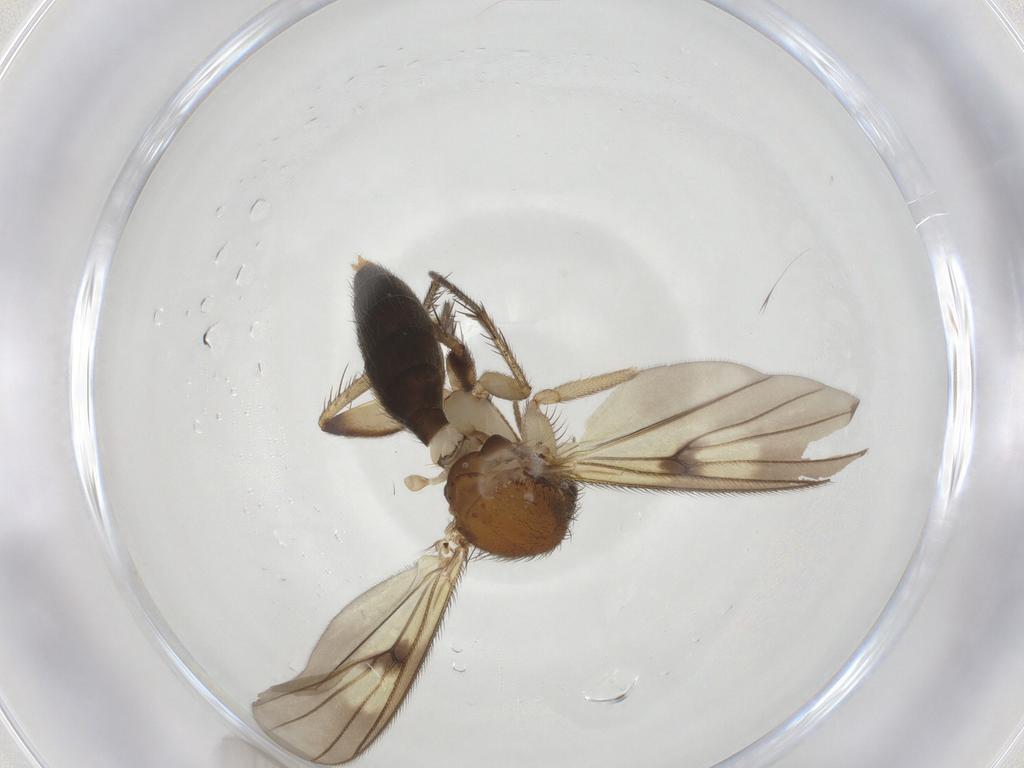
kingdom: Animalia
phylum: Arthropoda
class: Insecta
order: Diptera
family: Mycetophilidae
